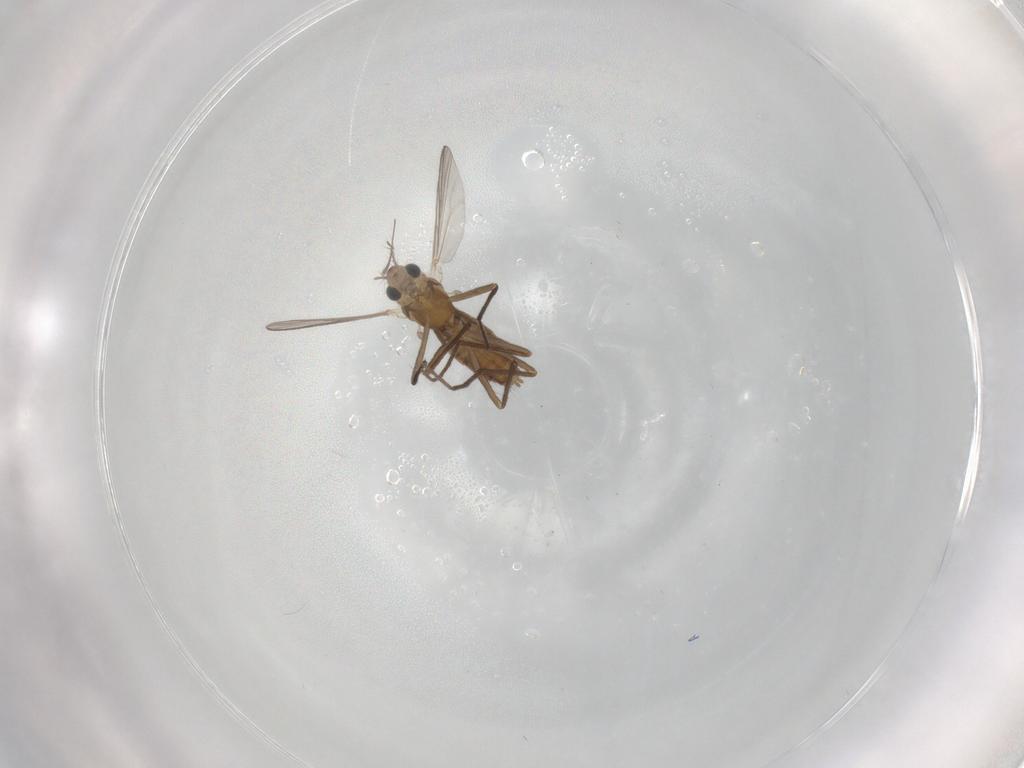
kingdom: Animalia
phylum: Arthropoda
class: Insecta
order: Diptera
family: Chironomidae
